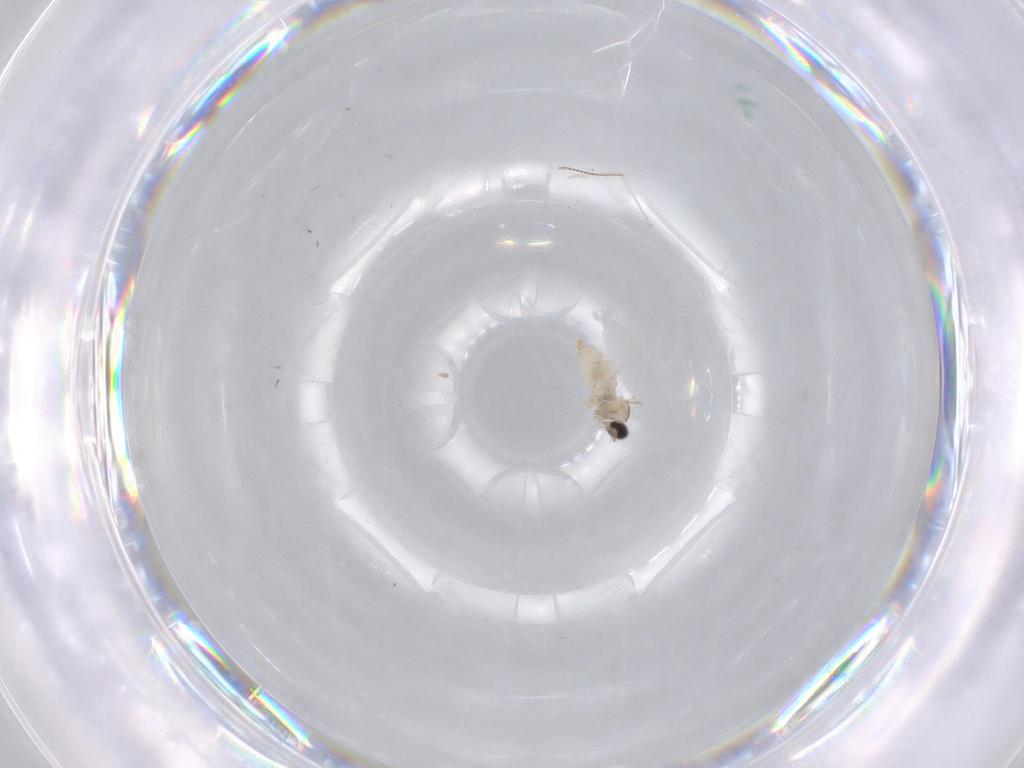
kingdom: Animalia
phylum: Arthropoda
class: Insecta
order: Diptera
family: Chironomidae
